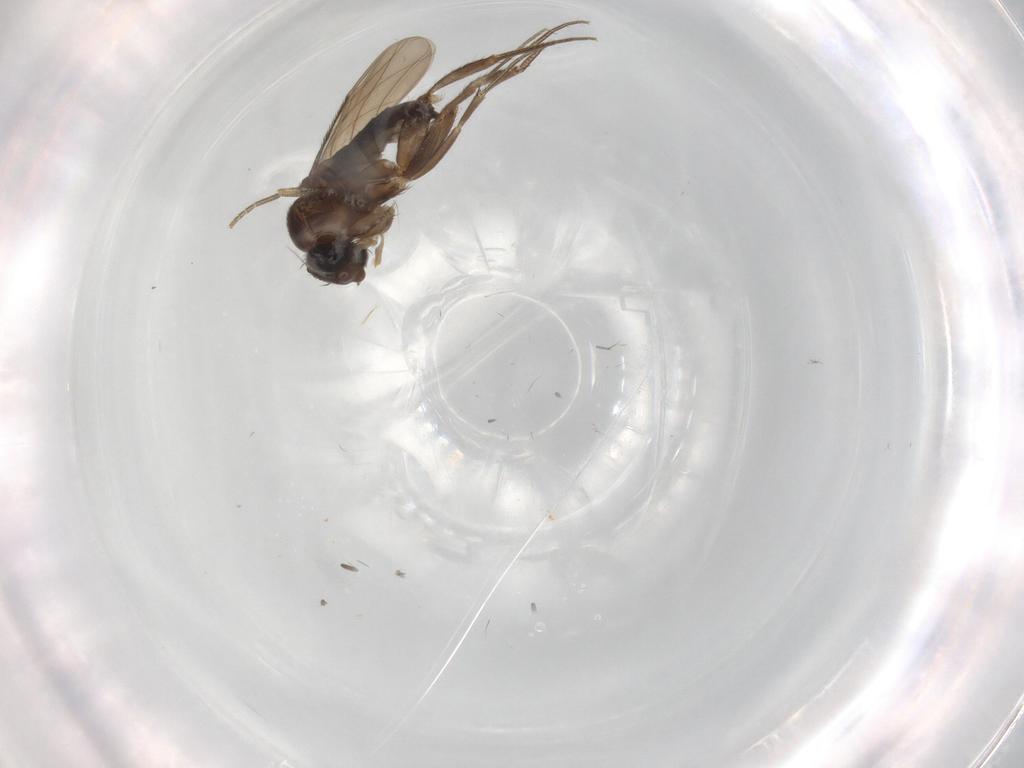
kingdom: Animalia
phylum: Arthropoda
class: Insecta
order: Diptera
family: Phoridae
